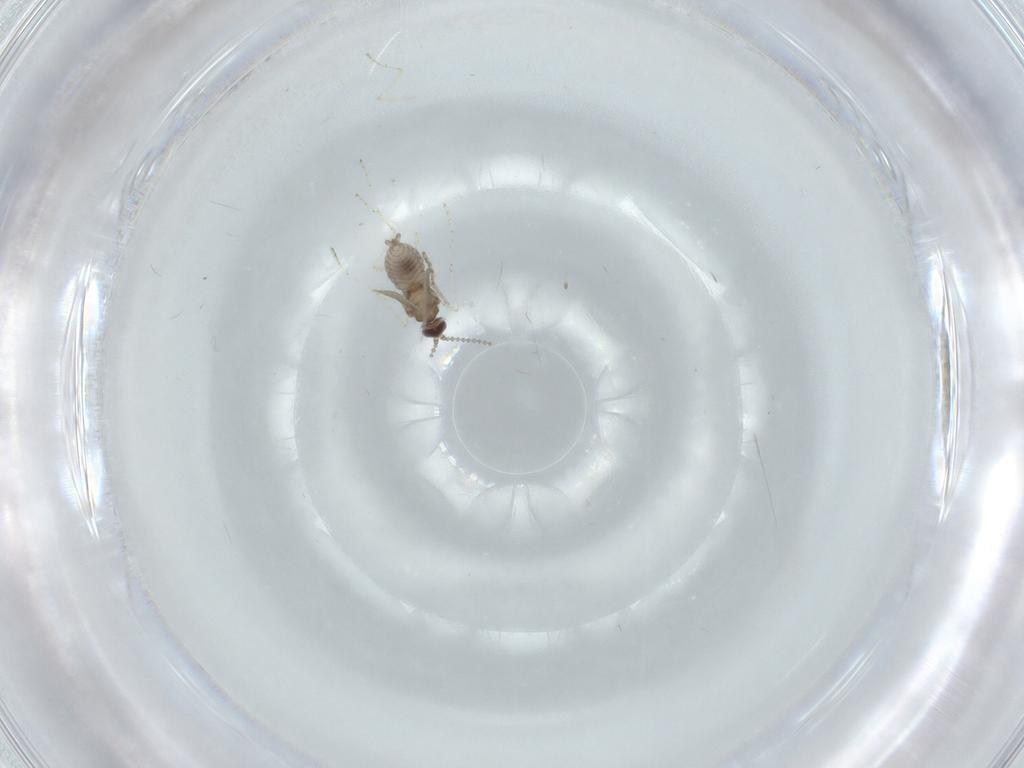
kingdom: Animalia
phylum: Arthropoda
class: Insecta
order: Diptera
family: Cecidomyiidae
